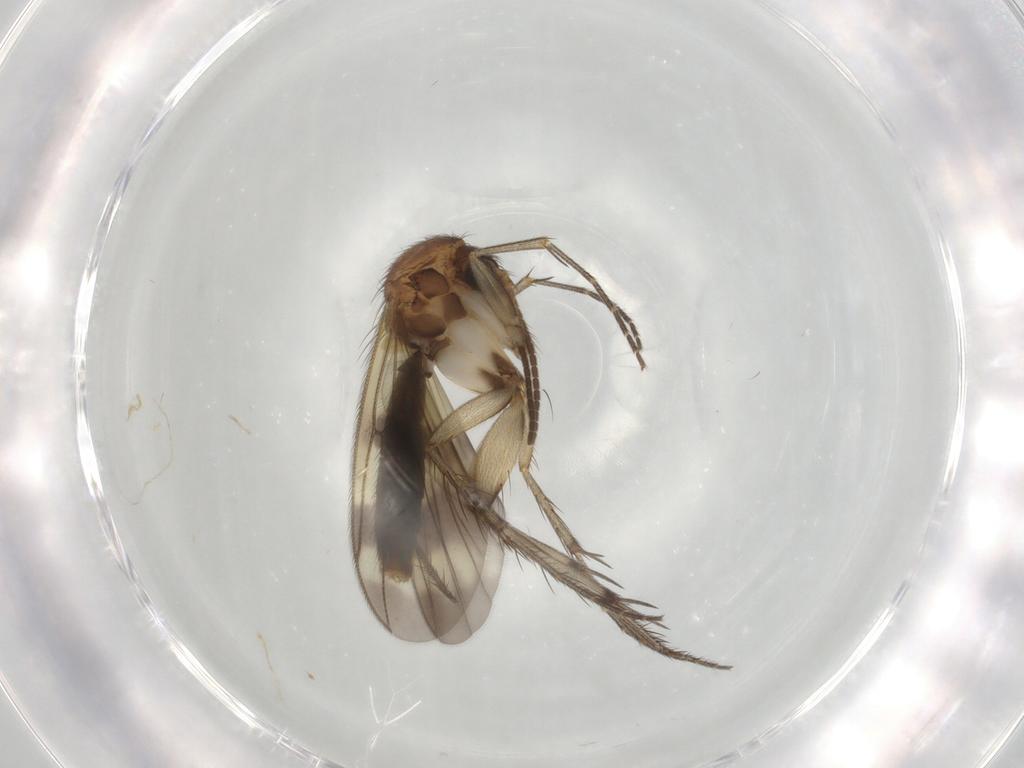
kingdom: Animalia
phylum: Arthropoda
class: Insecta
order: Diptera
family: Mycetophilidae
